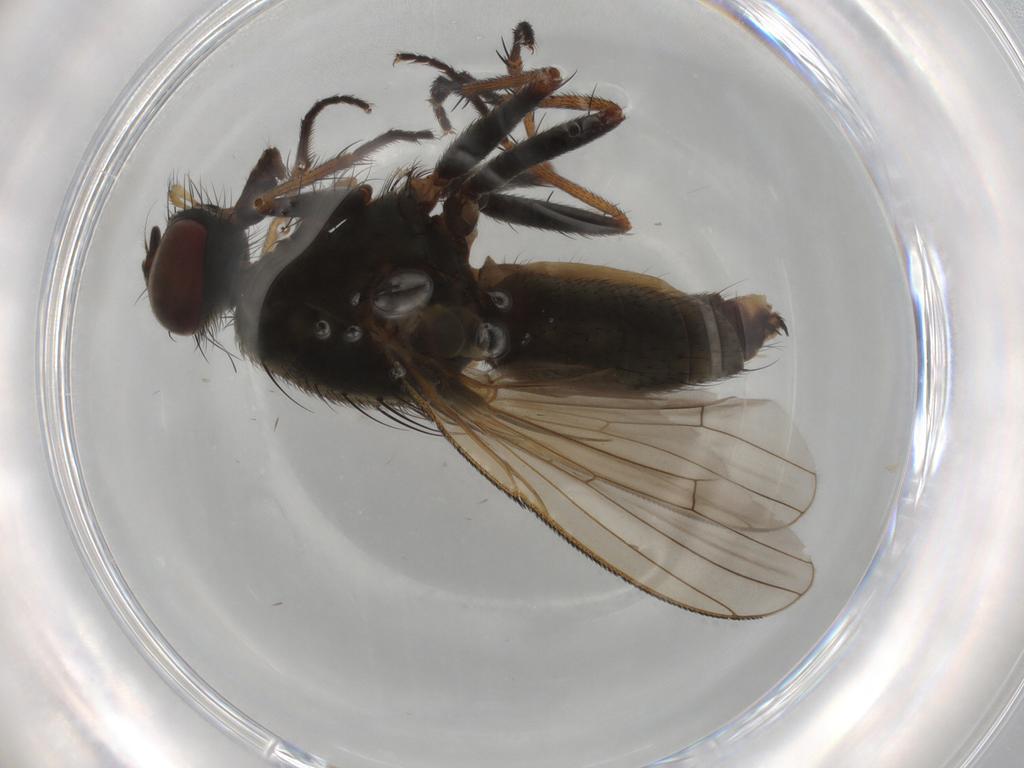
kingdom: Animalia
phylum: Arthropoda
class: Insecta
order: Diptera
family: Muscidae
